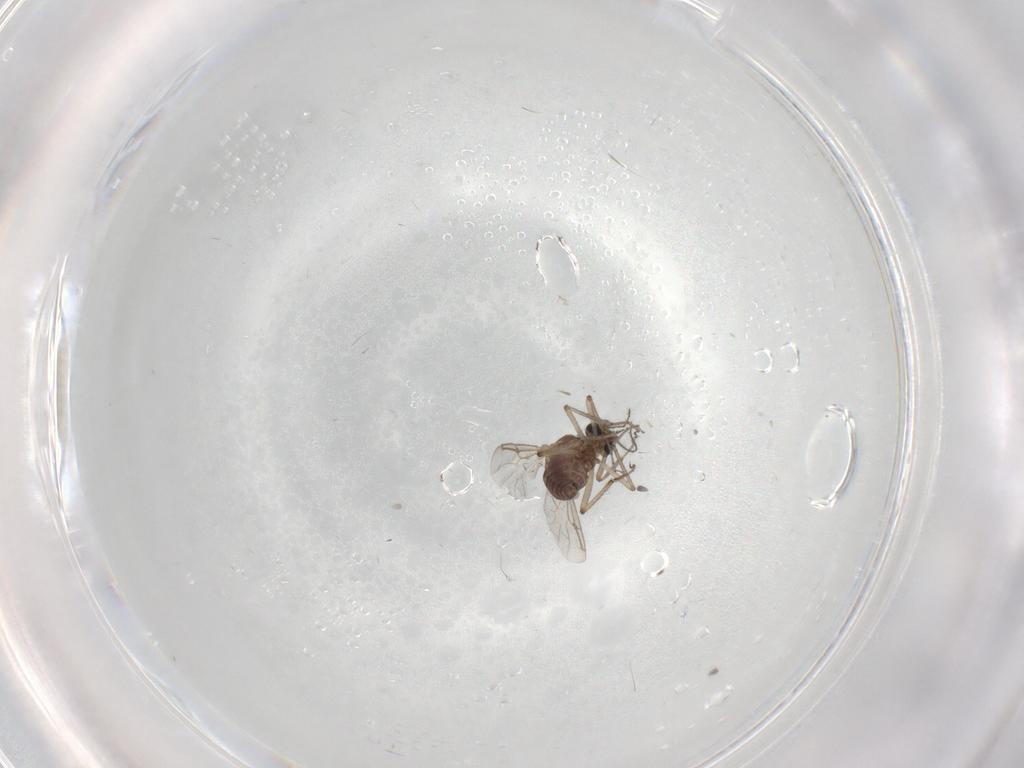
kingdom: Animalia
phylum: Arthropoda
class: Insecta
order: Diptera
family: Ceratopogonidae
